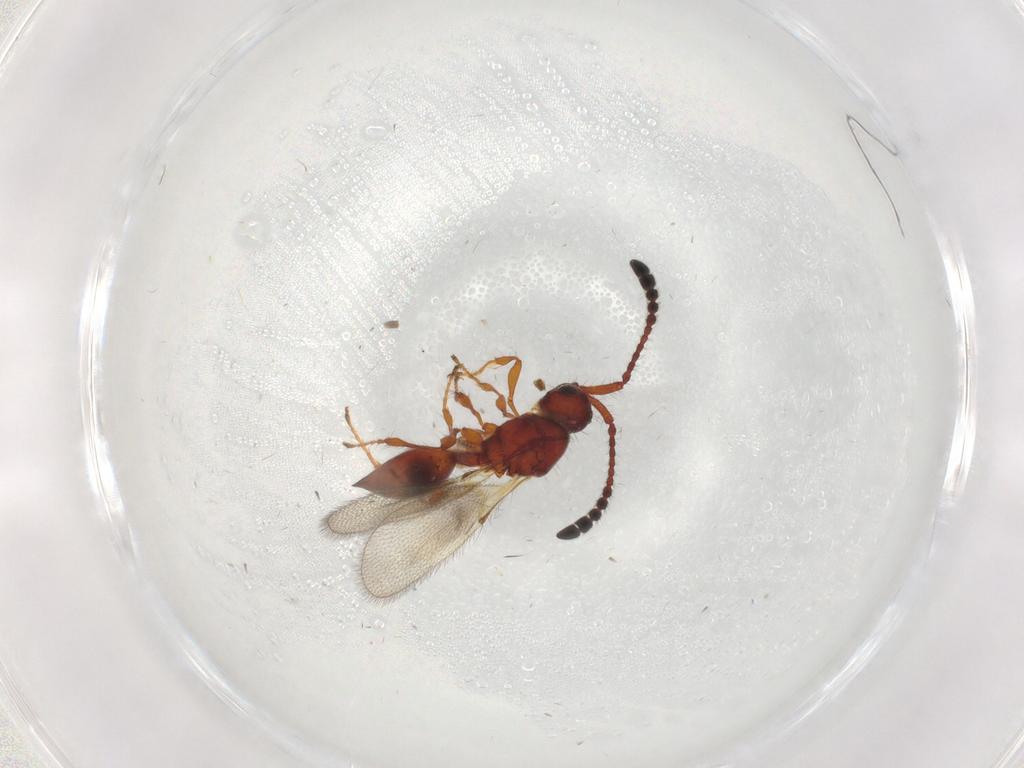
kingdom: Animalia
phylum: Arthropoda
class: Insecta
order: Hymenoptera
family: Diapriidae
